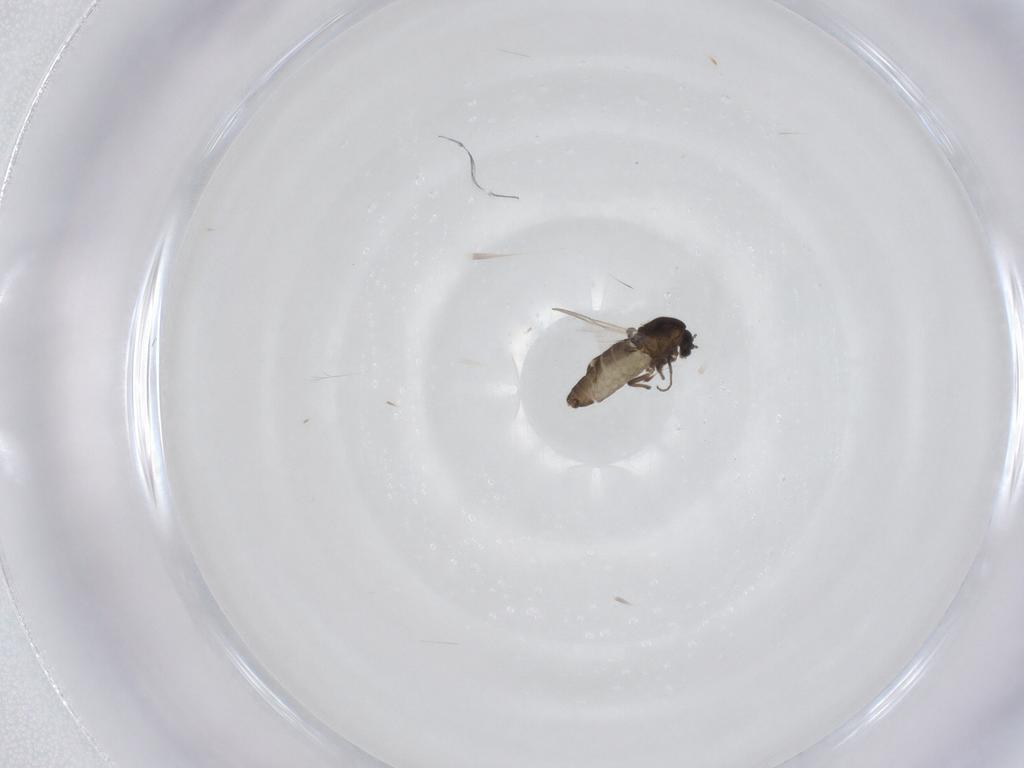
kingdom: Animalia
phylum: Arthropoda
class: Insecta
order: Diptera
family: Chironomidae
